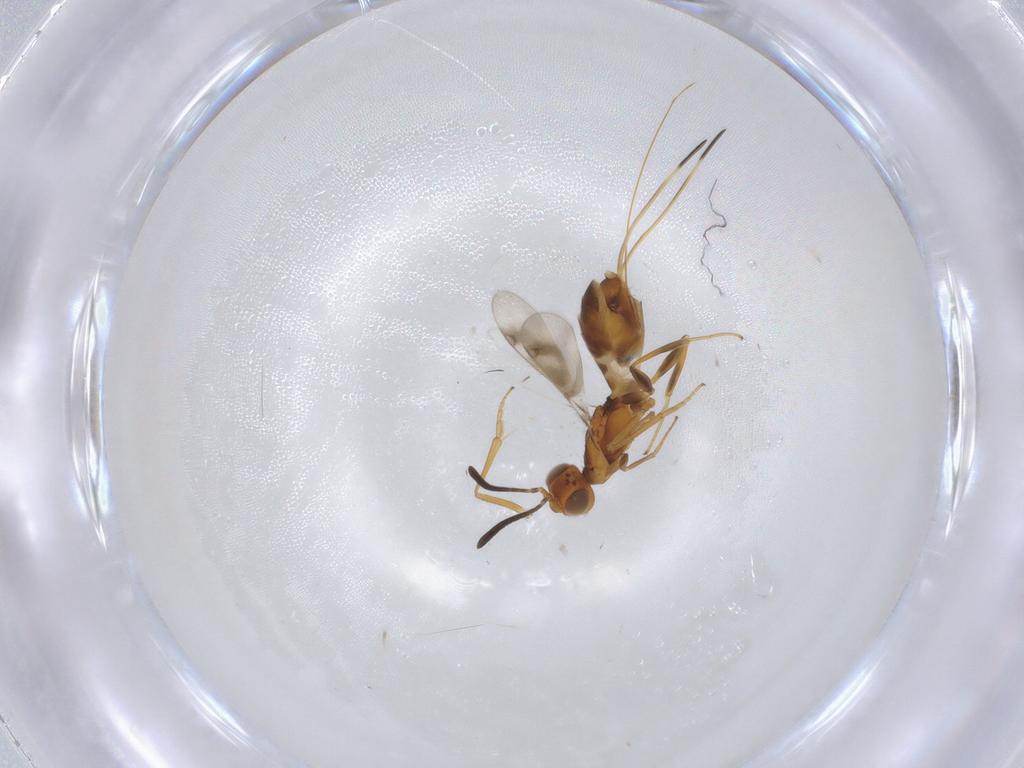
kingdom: Animalia
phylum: Arthropoda
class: Insecta
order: Hymenoptera
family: Eupelmidae
